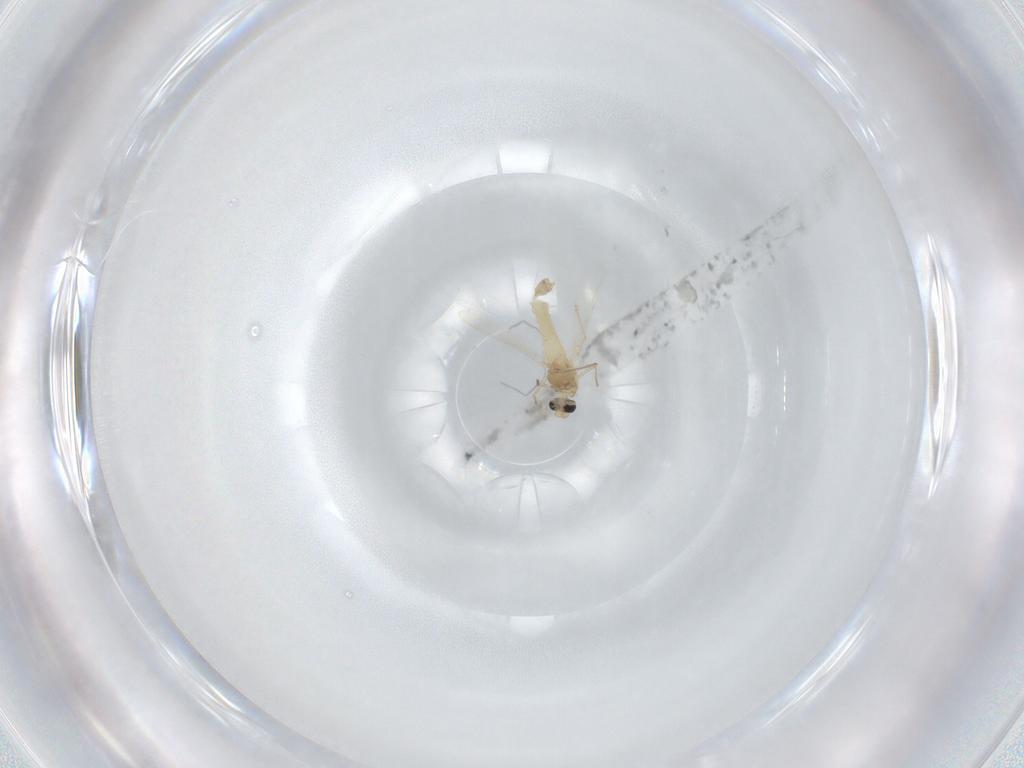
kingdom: Animalia
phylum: Arthropoda
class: Insecta
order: Diptera
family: Chironomidae
